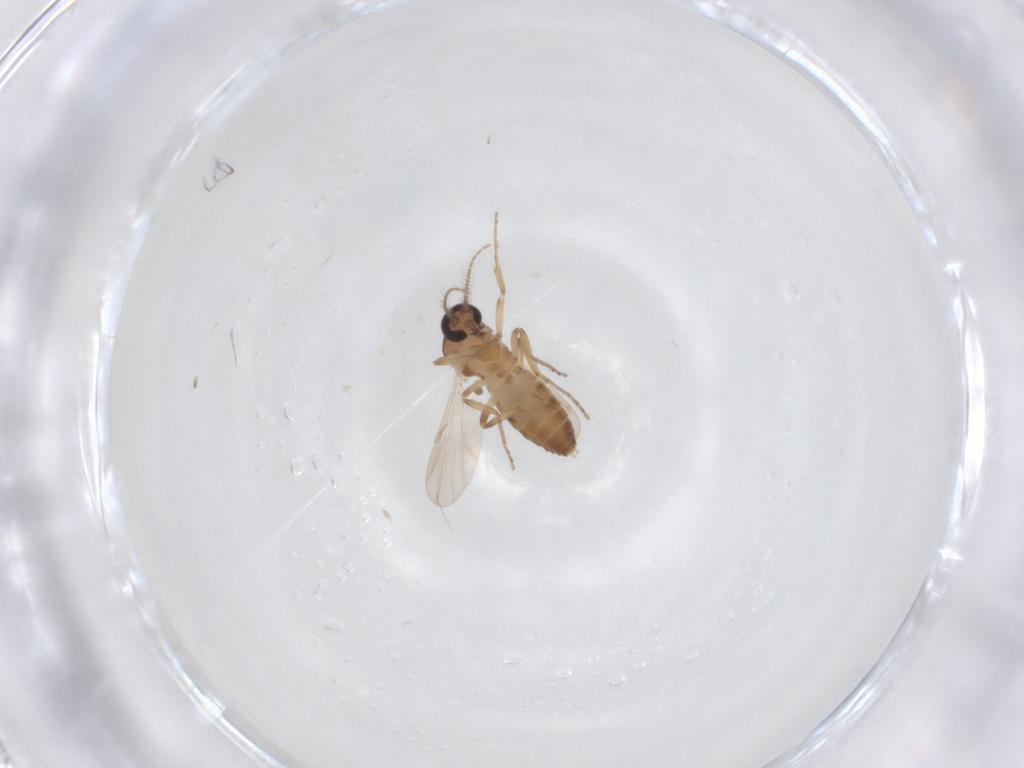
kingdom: Animalia
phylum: Arthropoda
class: Insecta
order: Diptera
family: Ceratopogonidae
